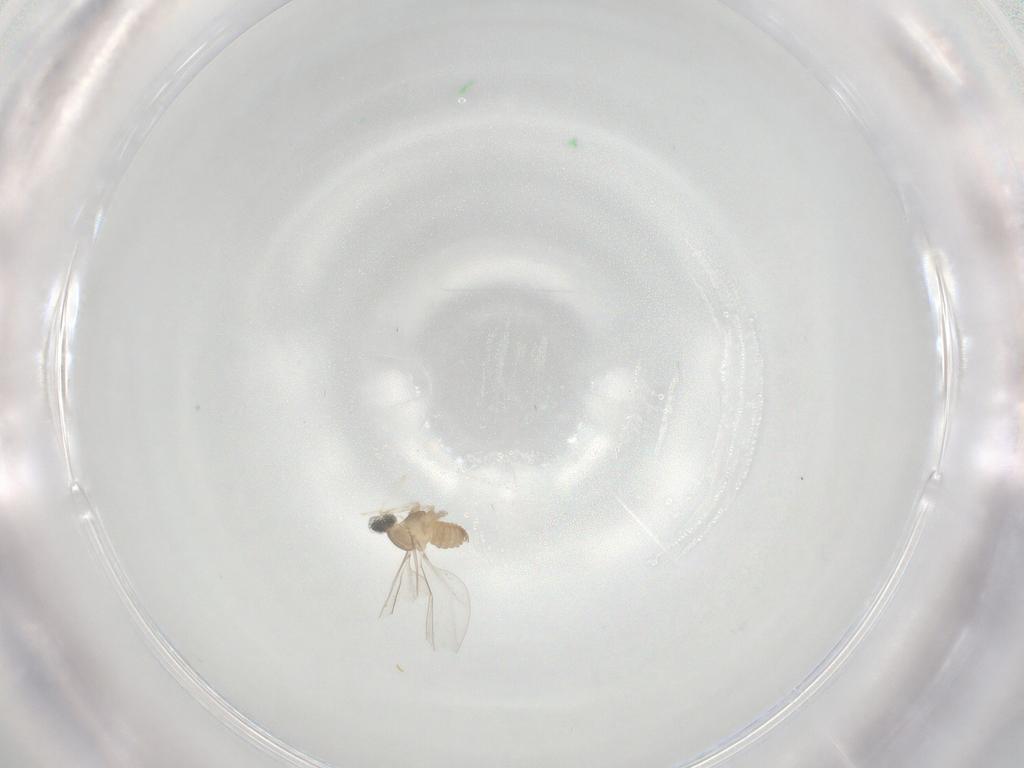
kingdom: Animalia
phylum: Arthropoda
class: Insecta
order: Diptera
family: Cecidomyiidae
